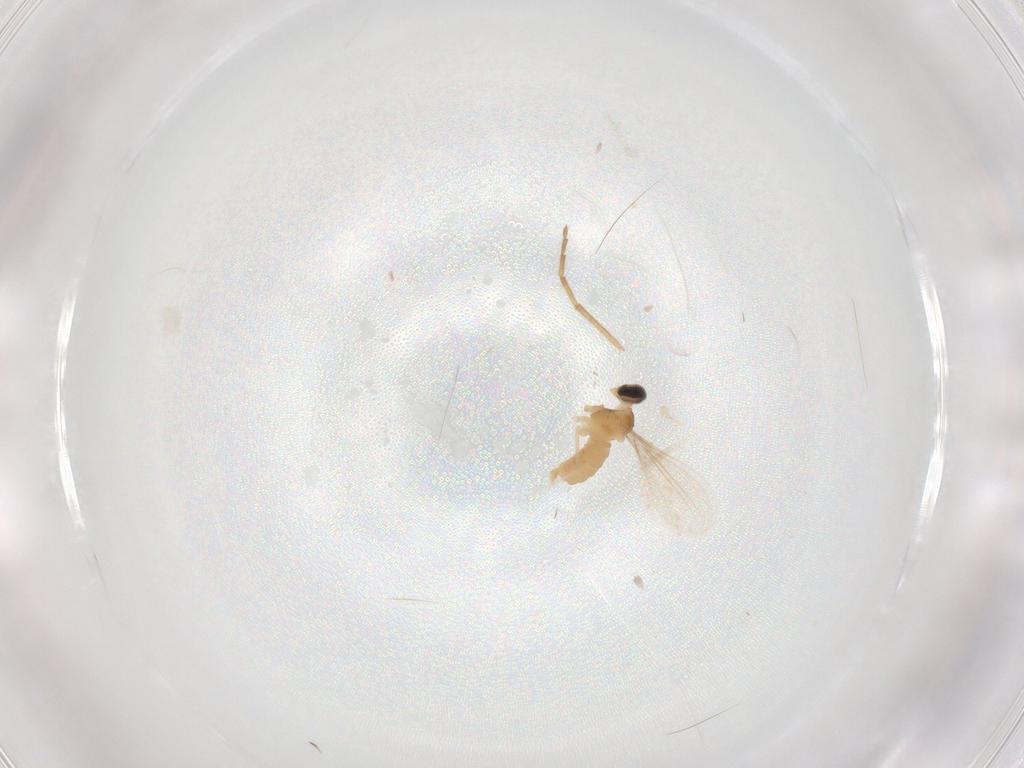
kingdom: Animalia
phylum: Arthropoda
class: Insecta
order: Diptera
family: Cecidomyiidae
